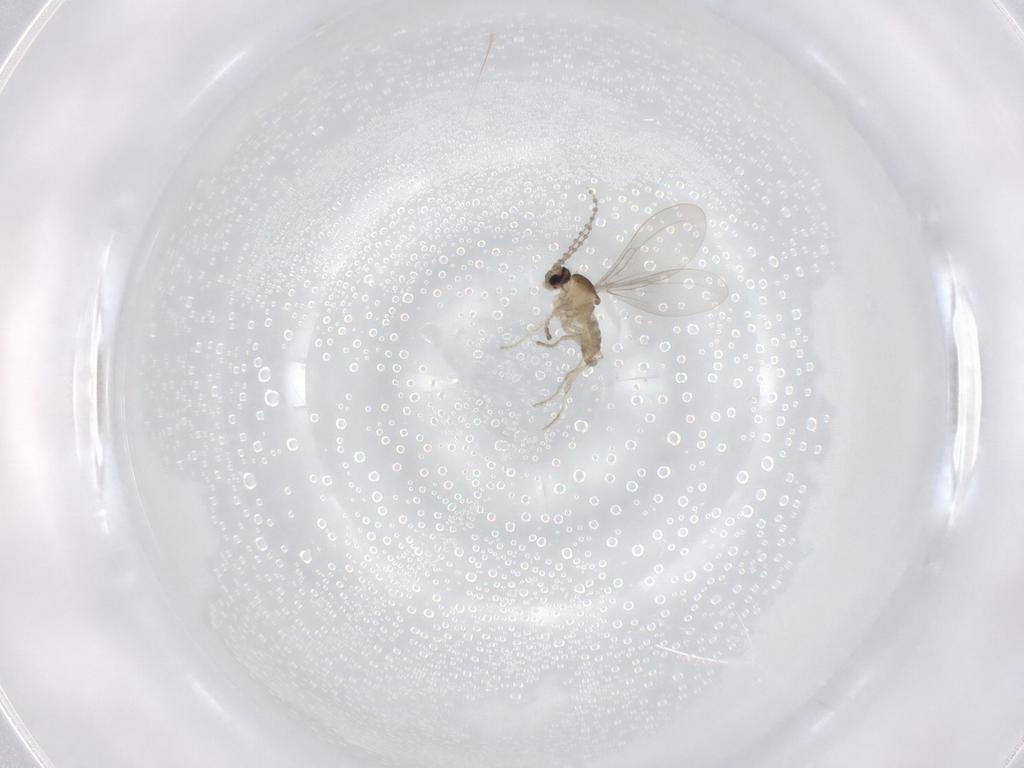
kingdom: Animalia
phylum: Arthropoda
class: Insecta
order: Diptera
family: Cecidomyiidae
